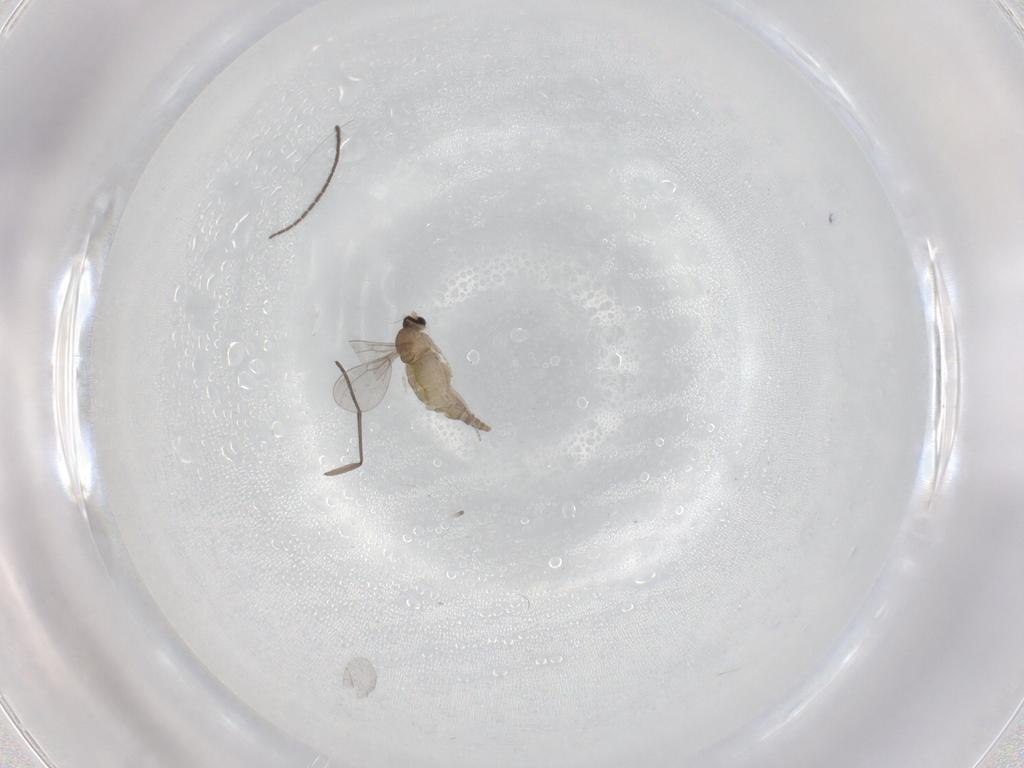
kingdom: Animalia
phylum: Arthropoda
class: Insecta
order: Diptera
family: Cecidomyiidae
